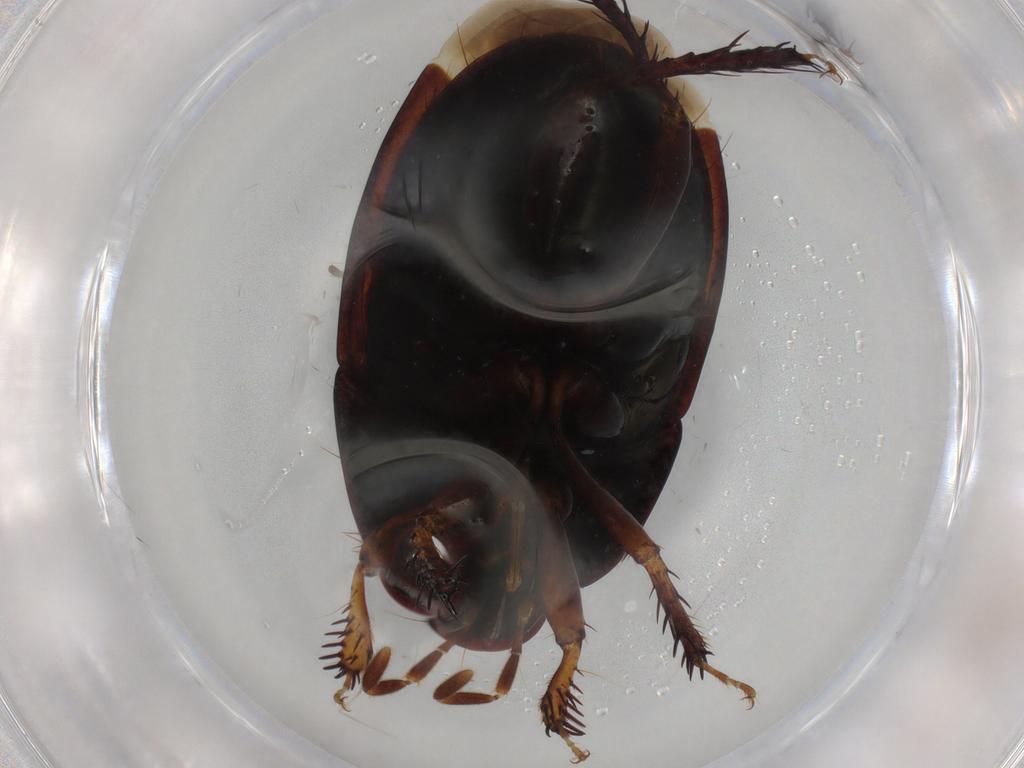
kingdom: Animalia
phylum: Arthropoda
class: Insecta
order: Hemiptera
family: Cydnidae
